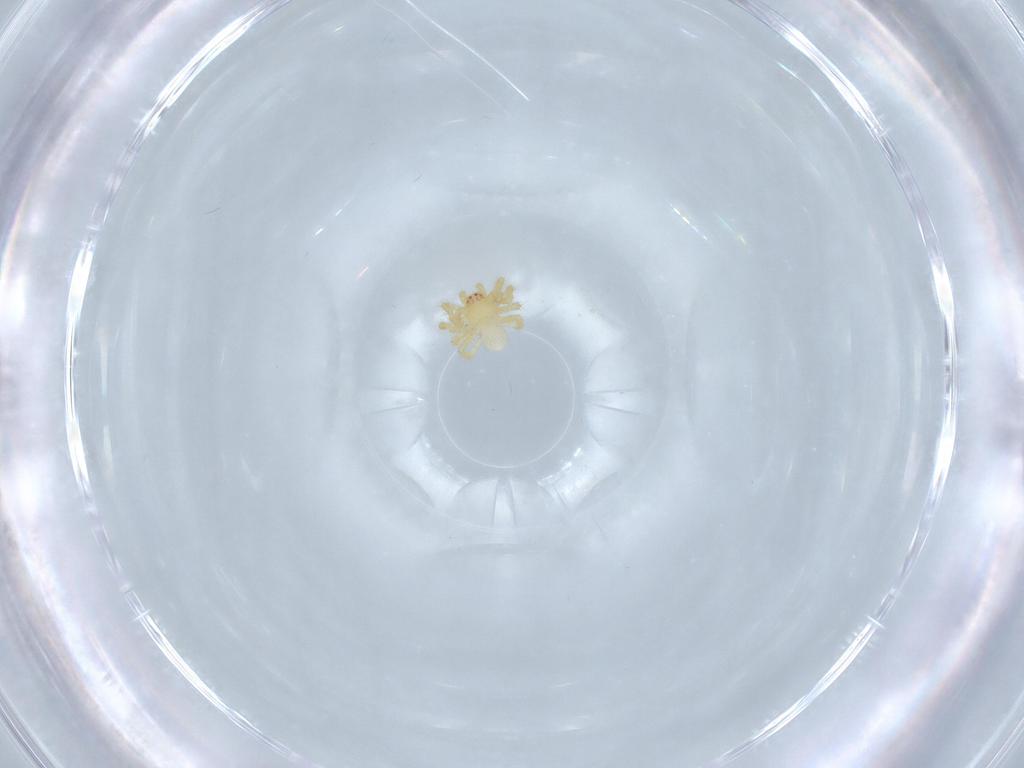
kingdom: Animalia
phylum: Arthropoda
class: Arachnida
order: Araneae
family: Theridiidae
